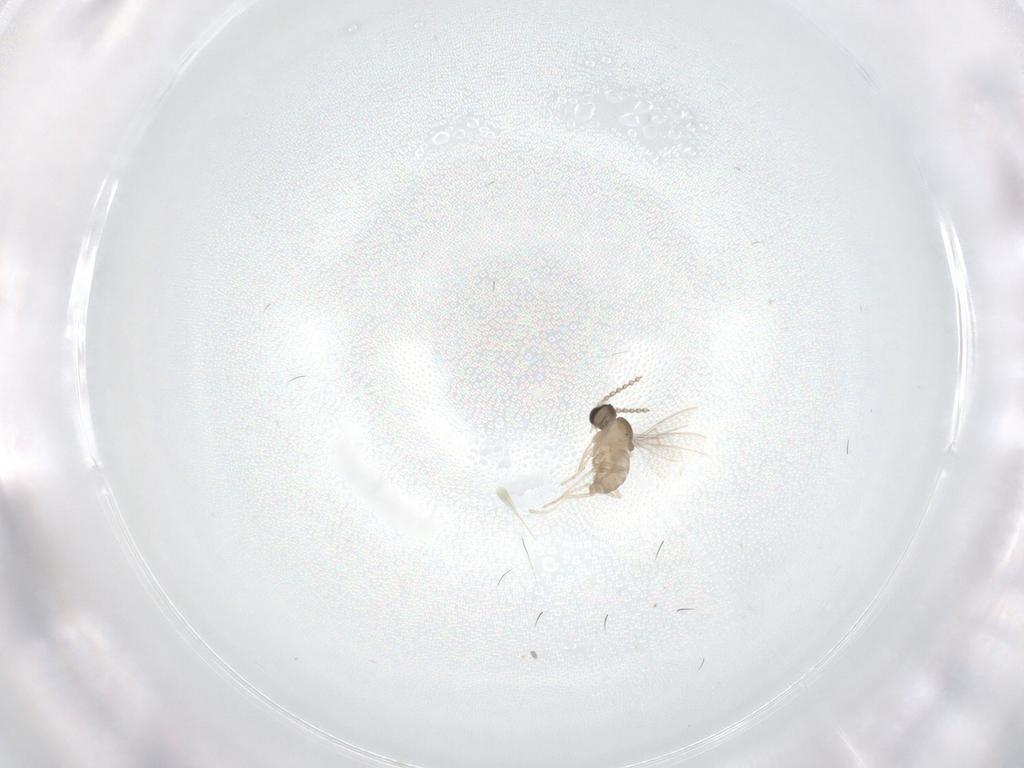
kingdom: Animalia
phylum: Arthropoda
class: Insecta
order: Diptera
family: Cecidomyiidae
